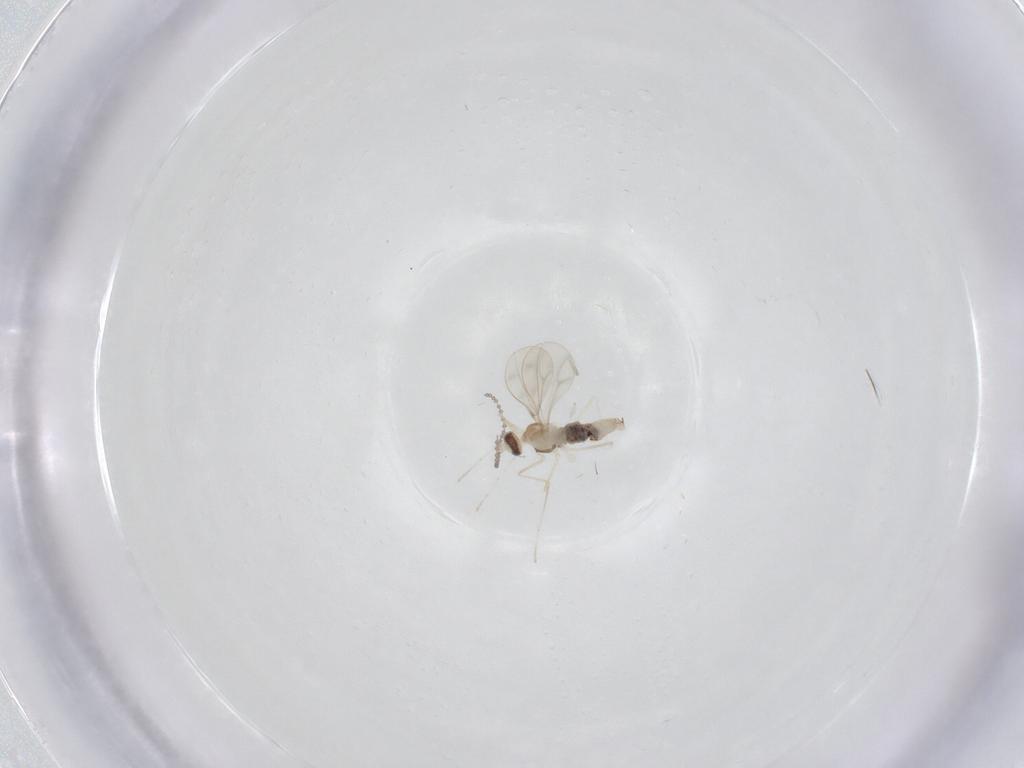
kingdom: Animalia
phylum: Arthropoda
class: Insecta
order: Diptera
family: Cecidomyiidae
